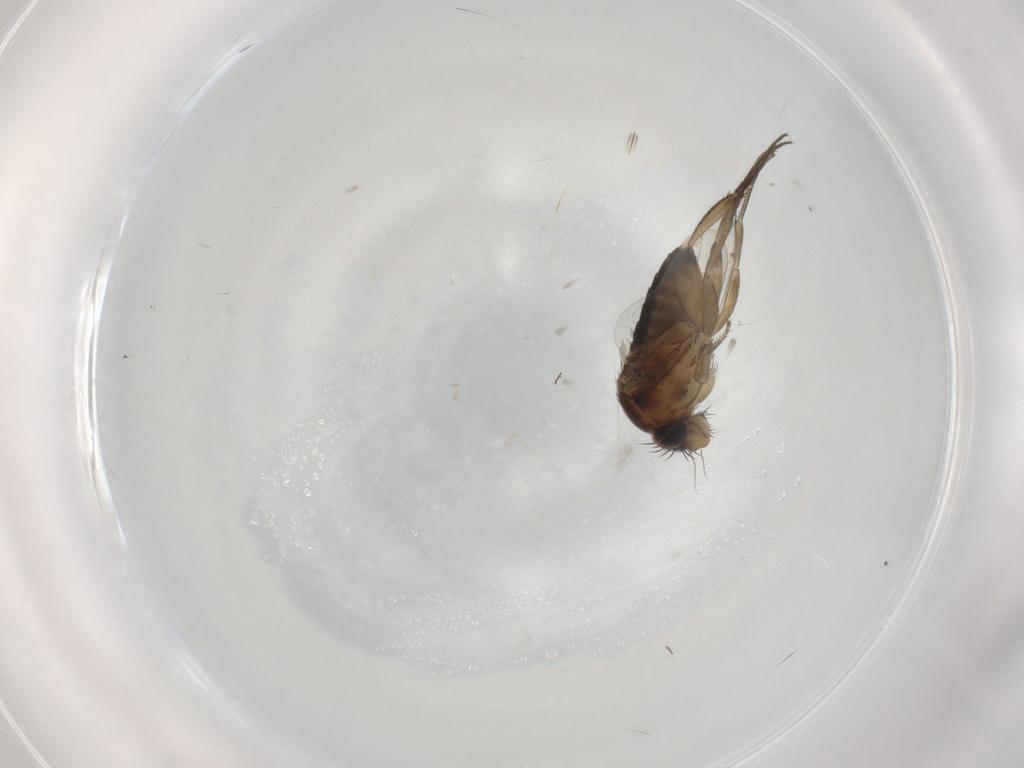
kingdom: Animalia
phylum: Arthropoda
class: Insecta
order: Diptera
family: Phoridae
